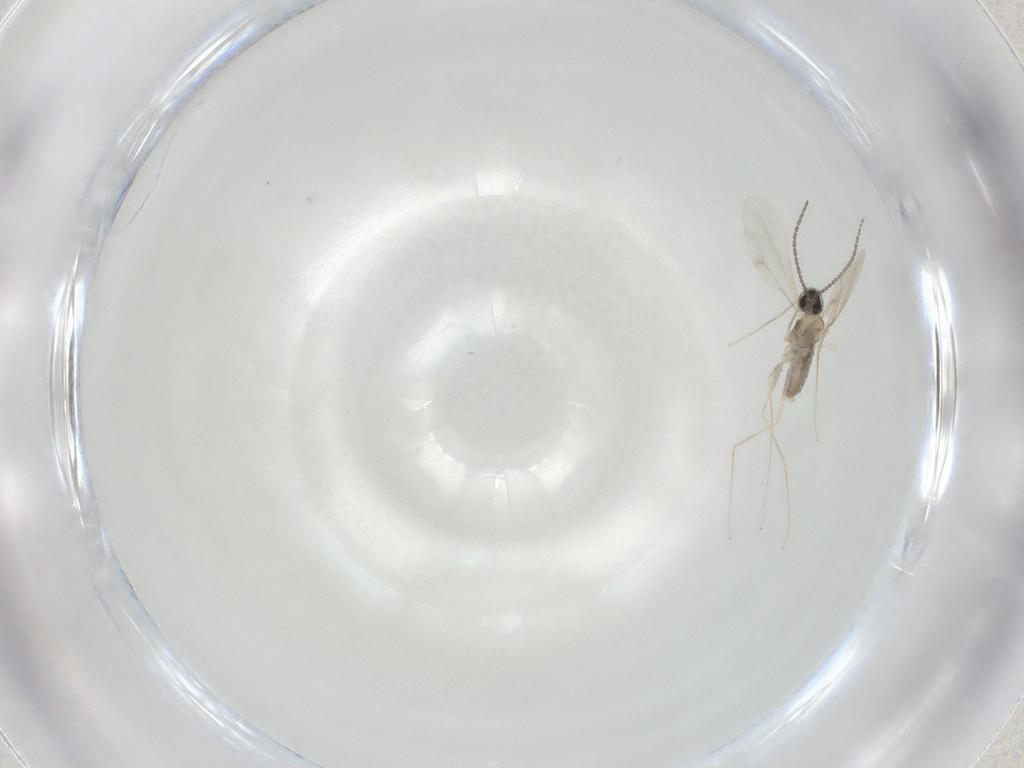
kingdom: Animalia
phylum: Arthropoda
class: Insecta
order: Diptera
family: Cecidomyiidae
